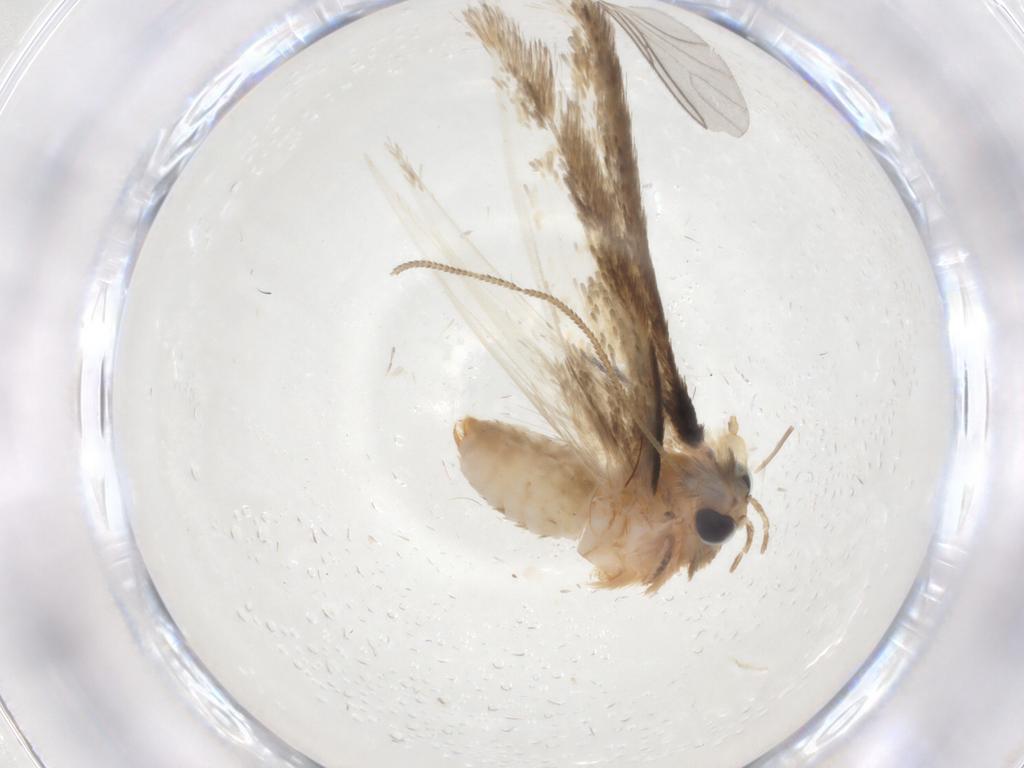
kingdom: Animalia
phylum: Arthropoda
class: Insecta
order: Lepidoptera
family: Nepticulidae
